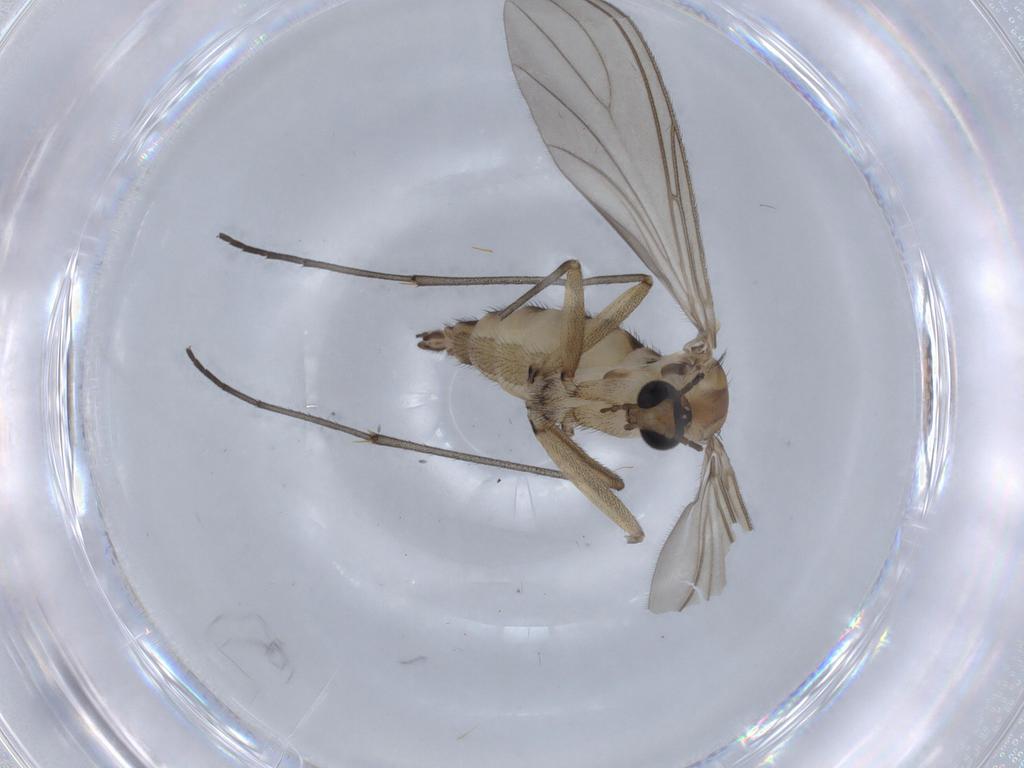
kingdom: Animalia
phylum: Arthropoda
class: Insecta
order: Diptera
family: Sciaridae
